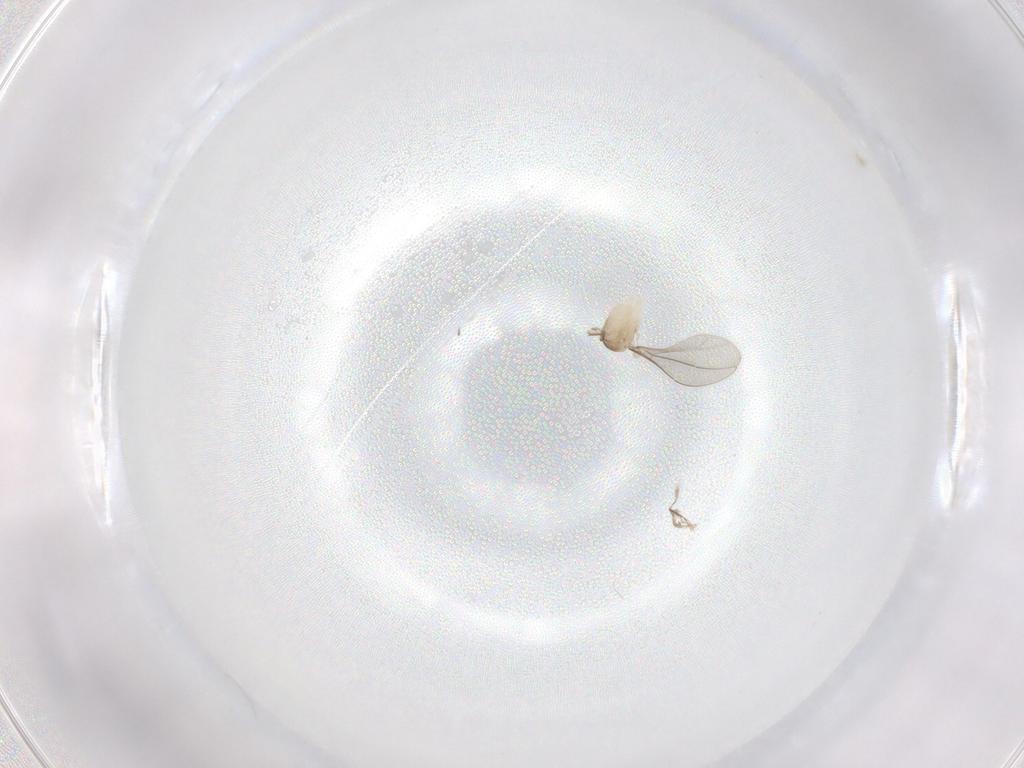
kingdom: Animalia
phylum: Arthropoda
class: Insecta
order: Diptera
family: Cecidomyiidae
